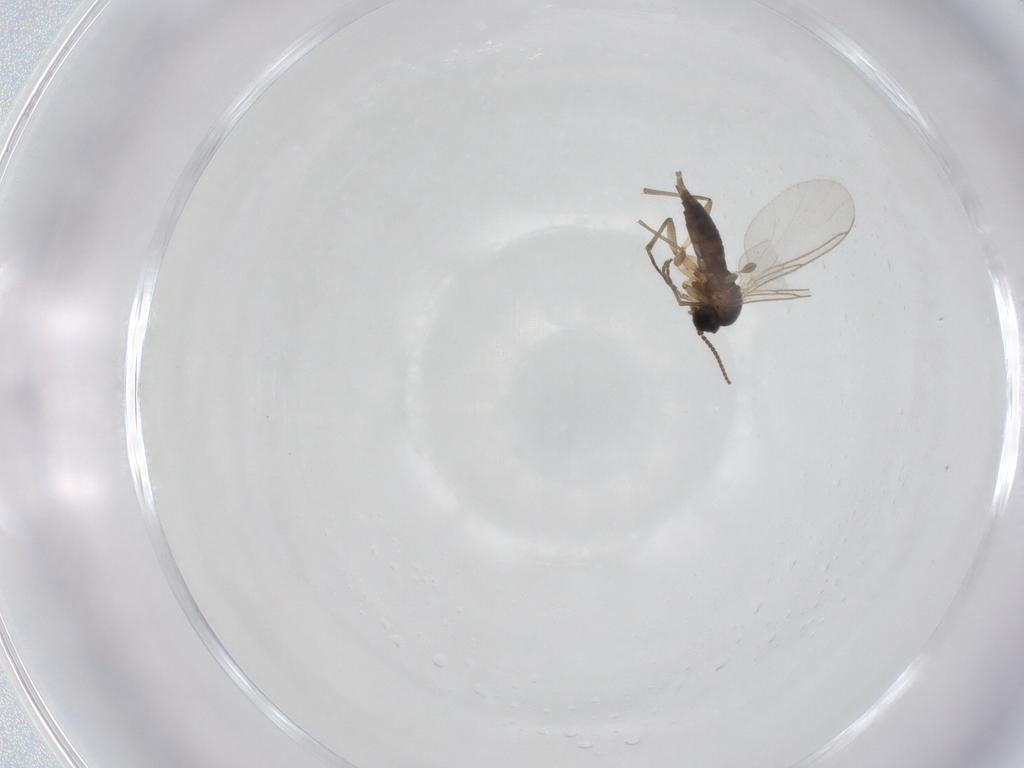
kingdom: Animalia
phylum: Arthropoda
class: Insecta
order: Diptera
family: Sciaridae
